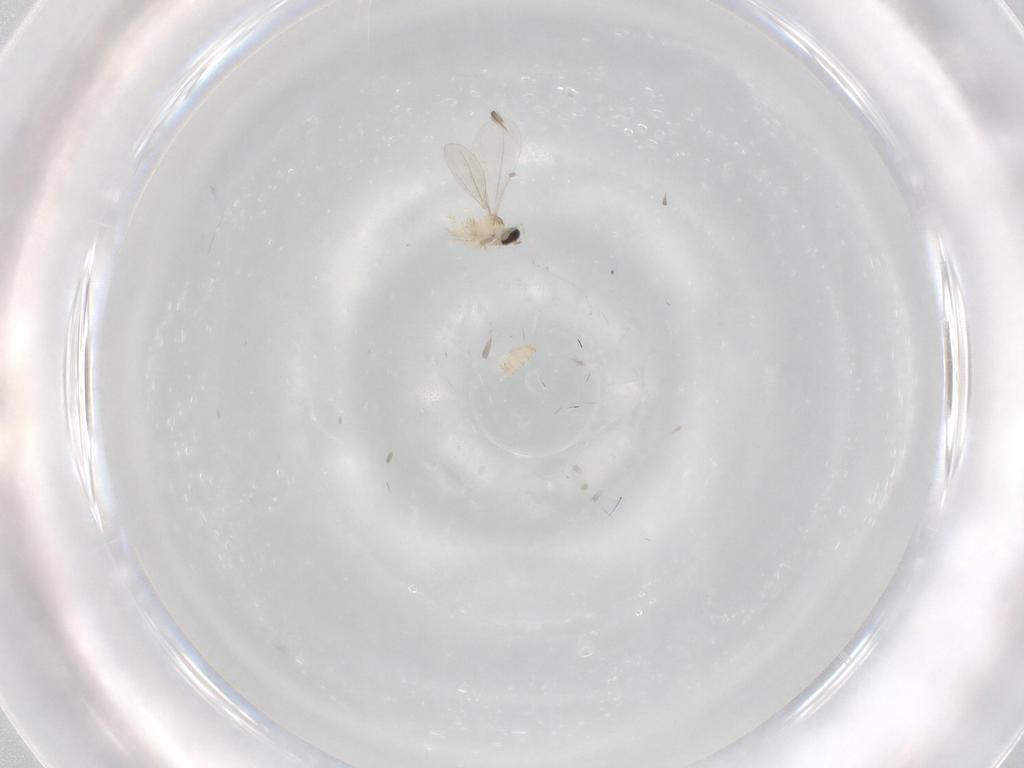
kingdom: Animalia
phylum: Arthropoda
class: Insecta
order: Diptera
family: Cecidomyiidae
